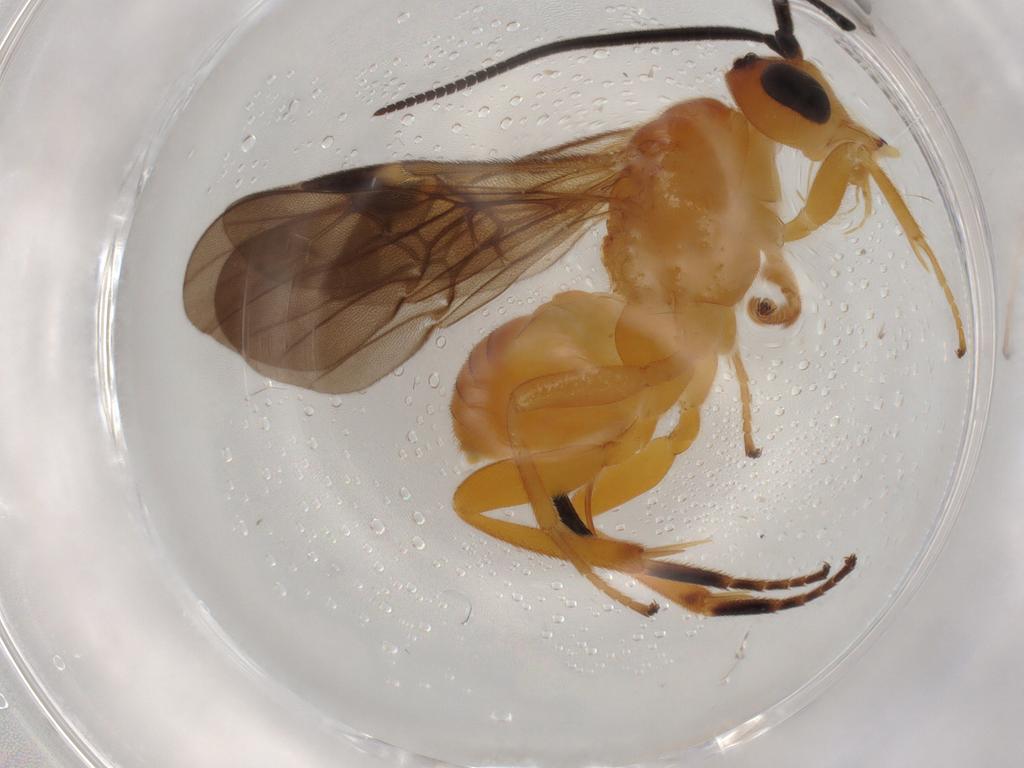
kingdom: Animalia
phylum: Arthropoda
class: Insecta
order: Hymenoptera
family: Braconidae
